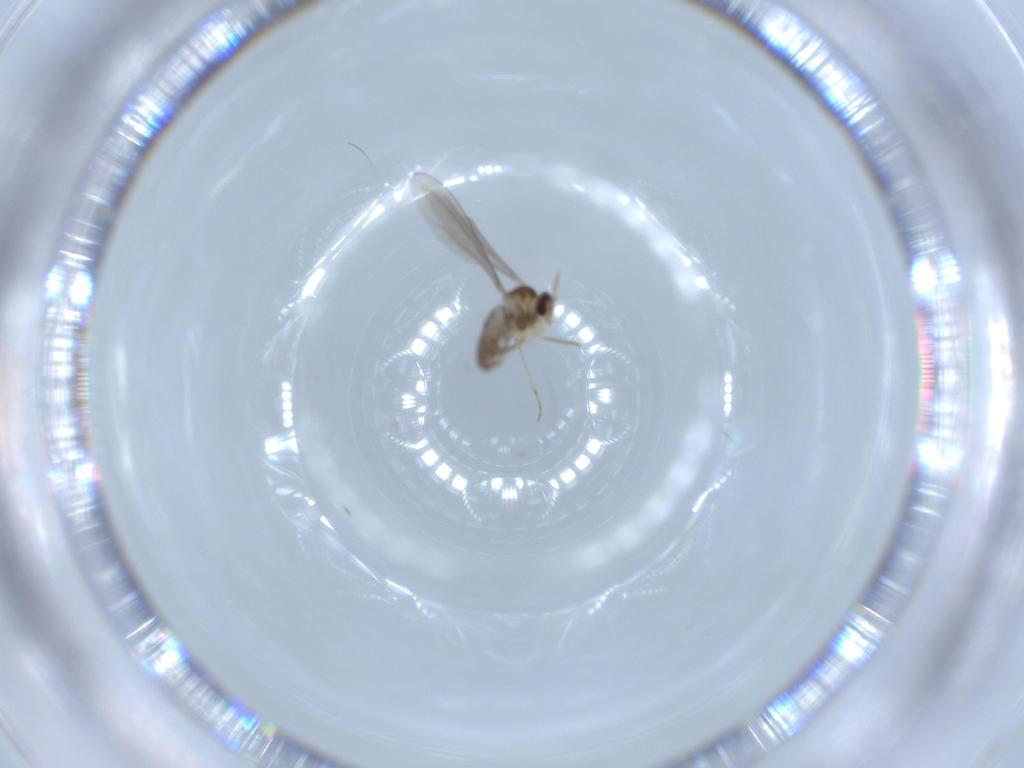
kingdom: Animalia
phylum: Arthropoda
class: Insecta
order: Diptera
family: Cecidomyiidae
